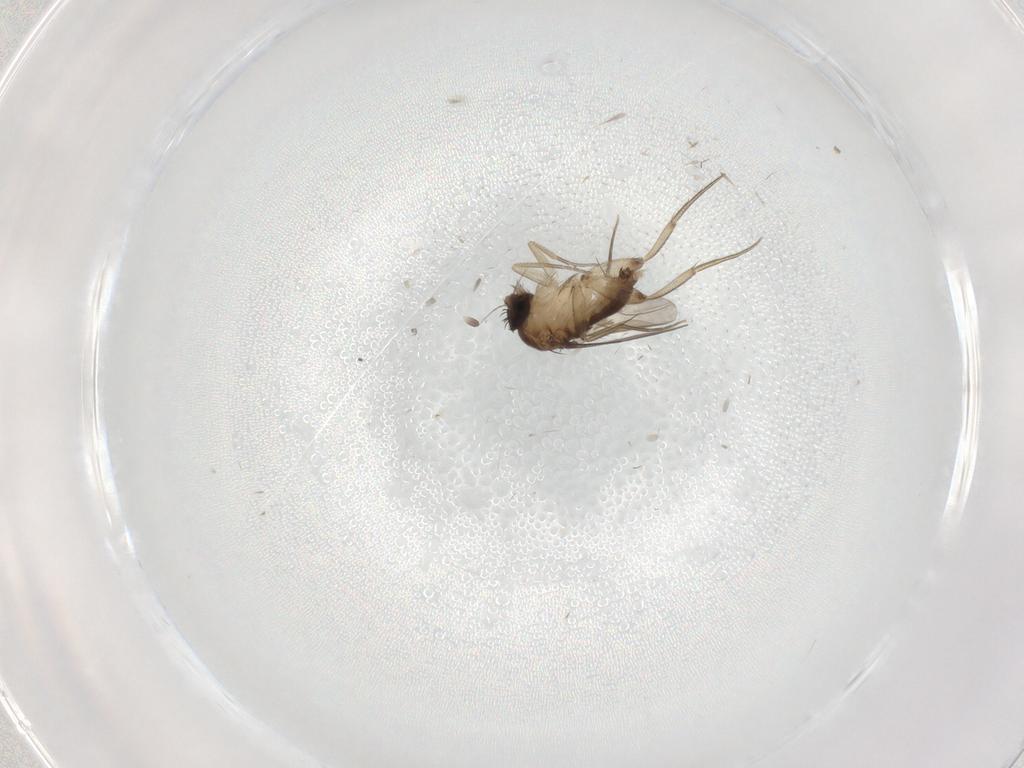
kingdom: Animalia
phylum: Arthropoda
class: Insecta
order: Diptera
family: Phoridae
